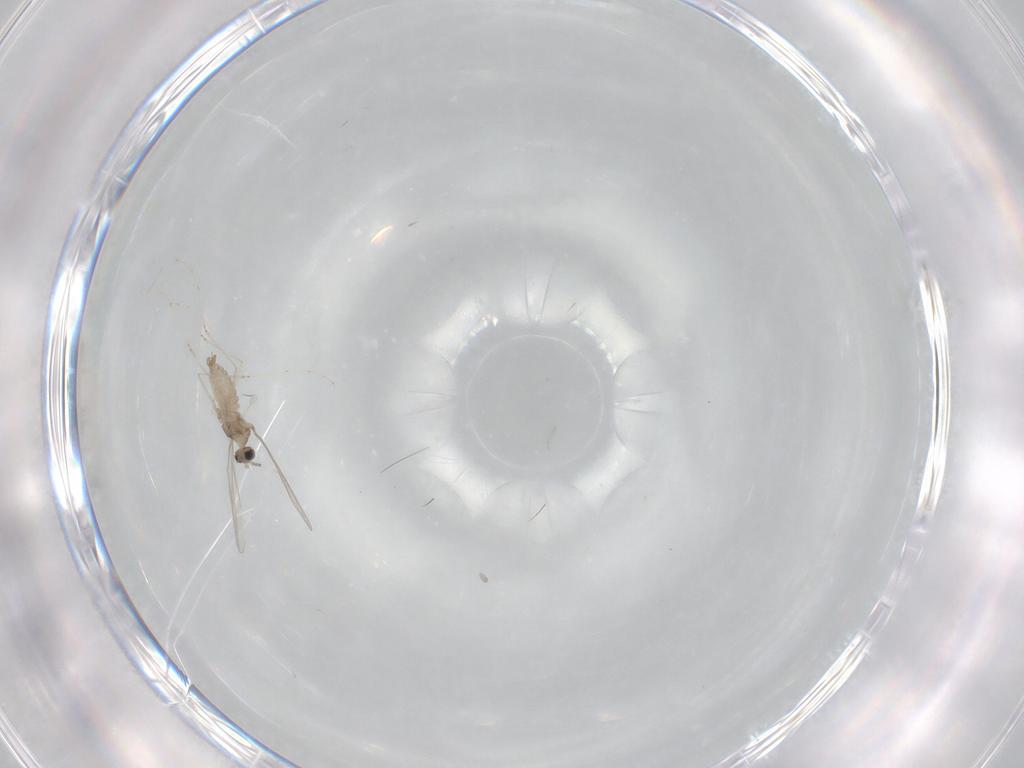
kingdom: Animalia
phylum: Arthropoda
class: Insecta
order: Diptera
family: Cecidomyiidae
